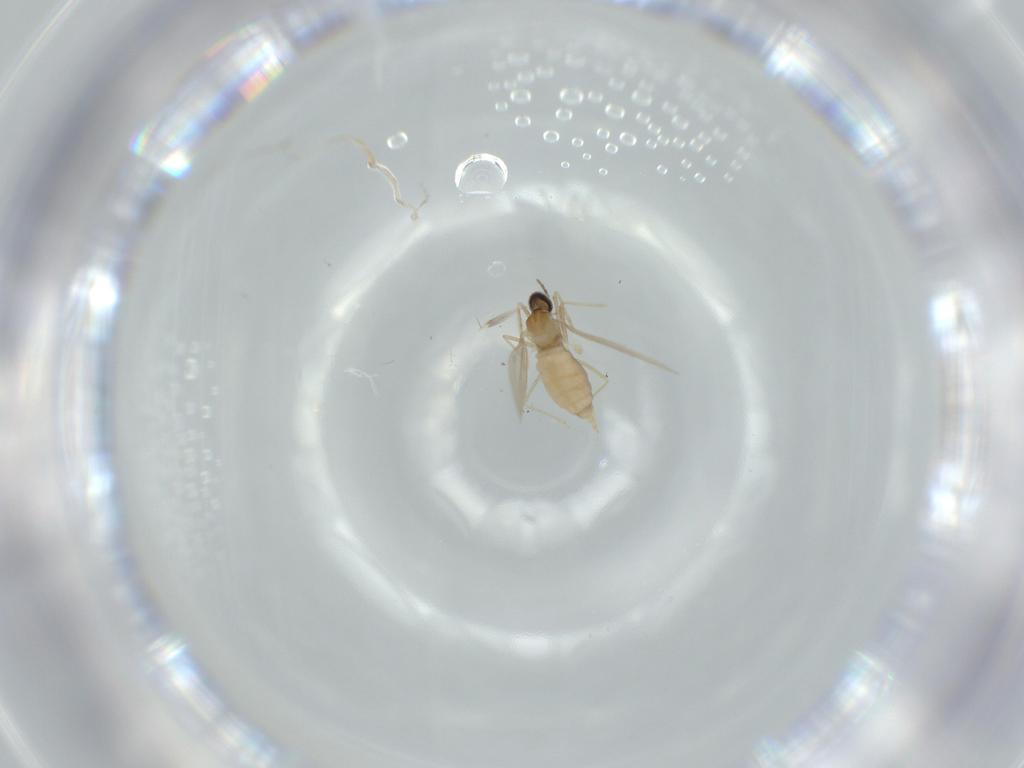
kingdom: Animalia
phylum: Arthropoda
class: Insecta
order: Diptera
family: Cecidomyiidae
